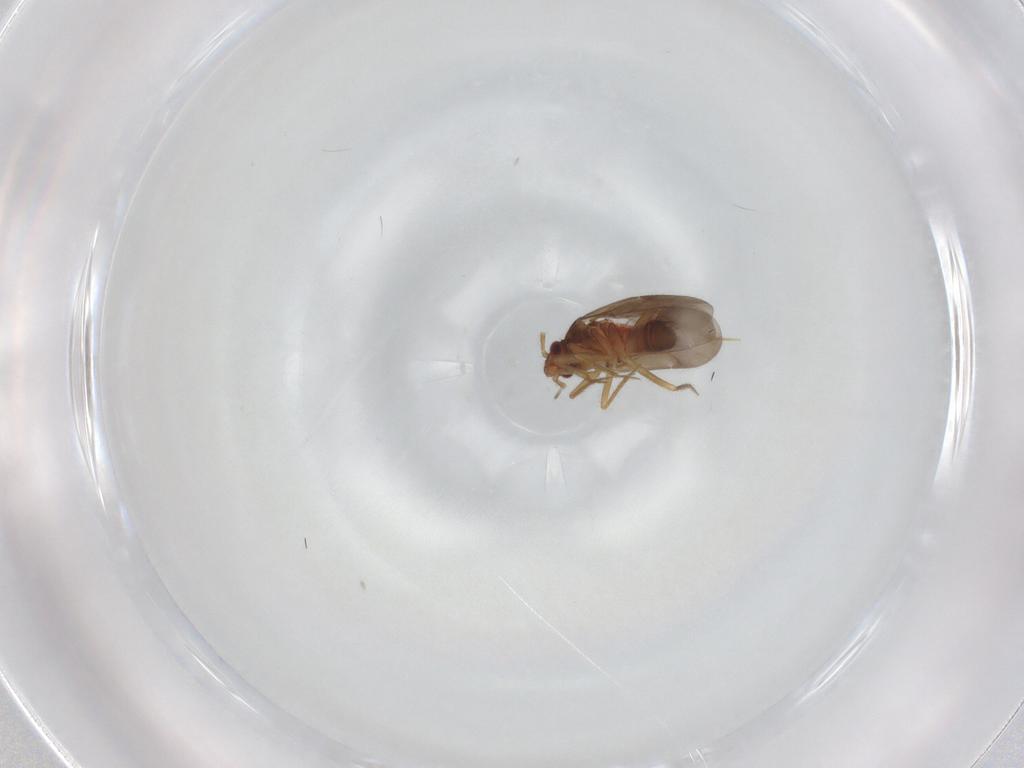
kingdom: Animalia
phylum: Arthropoda
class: Insecta
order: Hemiptera
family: Ceratocombidae
